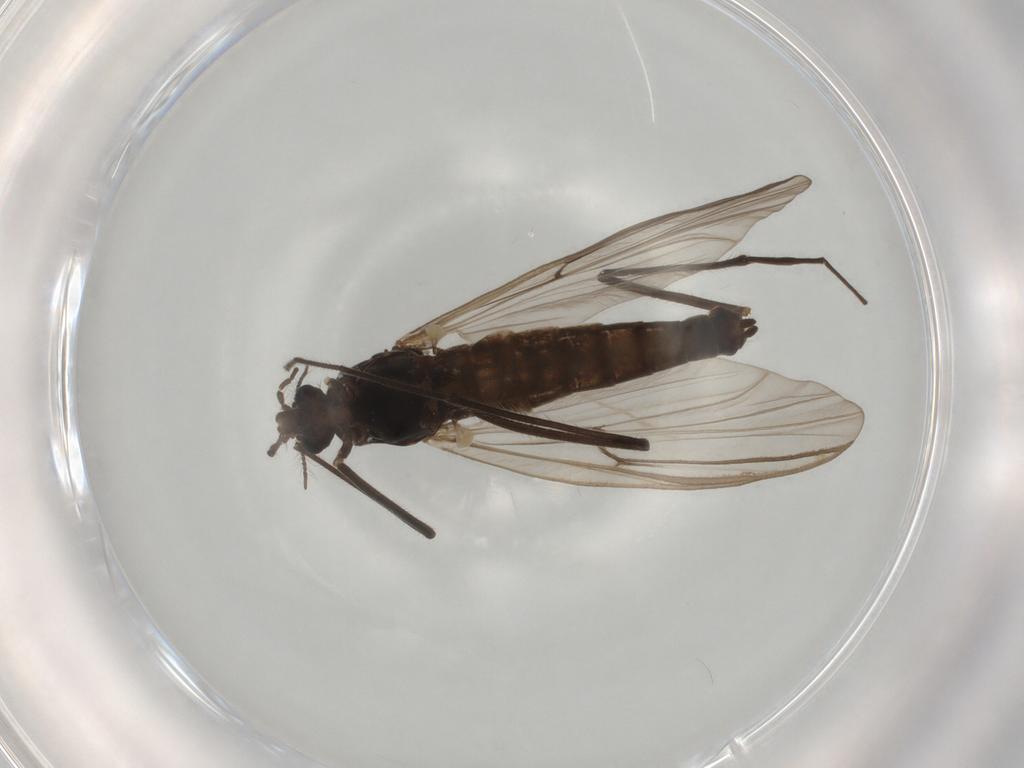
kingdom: Animalia
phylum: Arthropoda
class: Insecta
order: Diptera
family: Chironomidae
